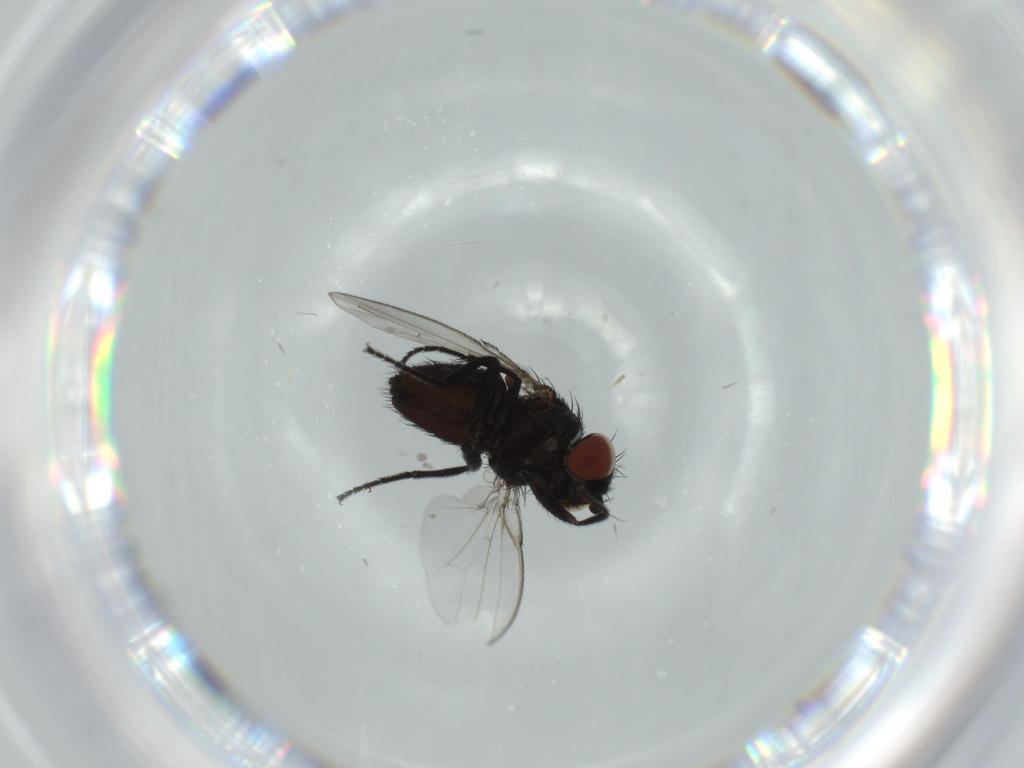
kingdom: Animalia
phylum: Arthropoda
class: Insecta
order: Diptera
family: Milichiidae
